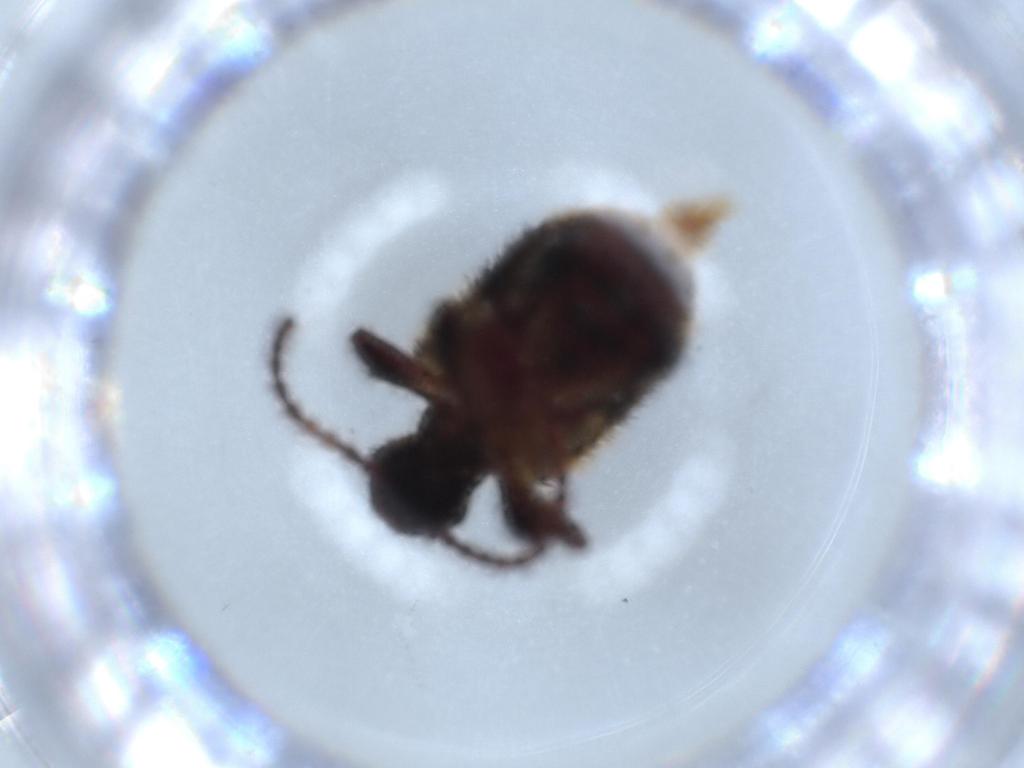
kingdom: Animalia
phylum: Arthropoda
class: Insecta
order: Coleoptera
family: Ptinidae
